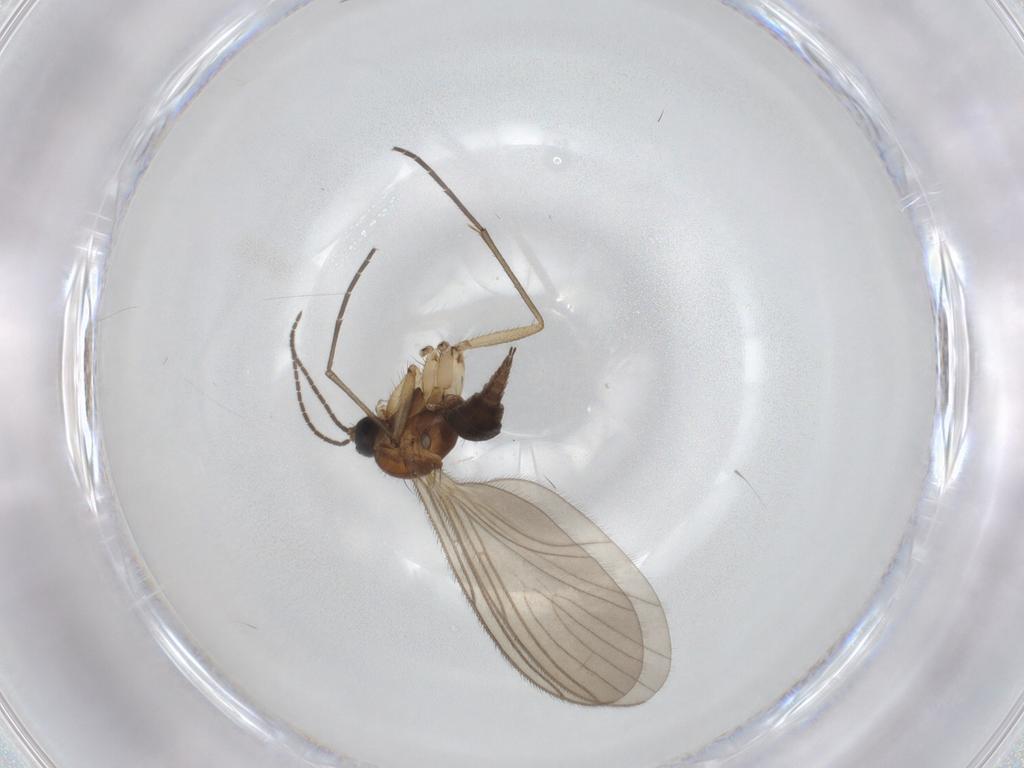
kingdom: Animalia
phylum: Arthropoda
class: Insecta
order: Diptera
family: Sciaridae
